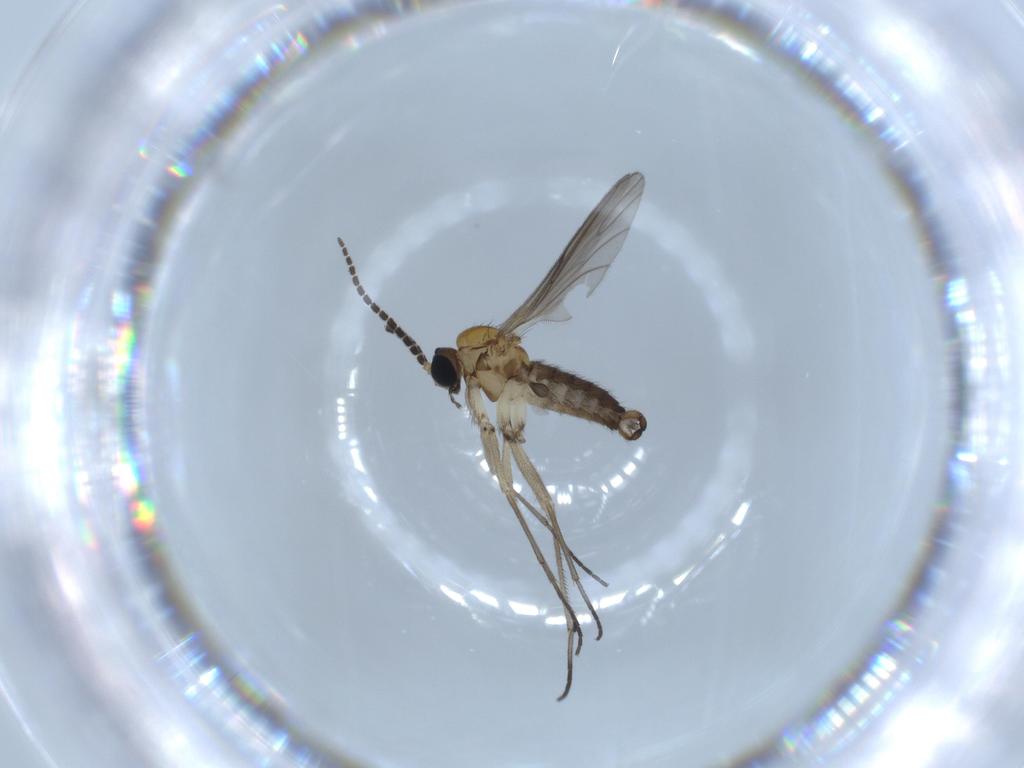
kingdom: Animalia
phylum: Arthropoda
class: Insecta
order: Diptera
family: Sciaridae
